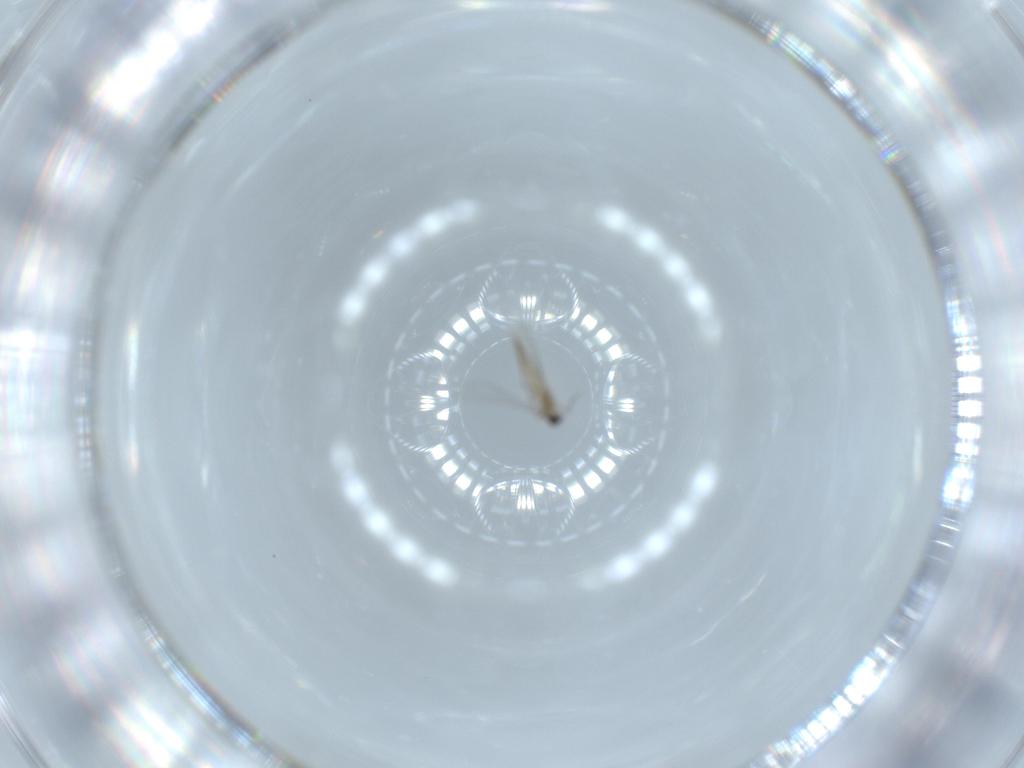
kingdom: Animalia
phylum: Arthropoda
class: Insecta
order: Diptera
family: Cecidomyiidae
